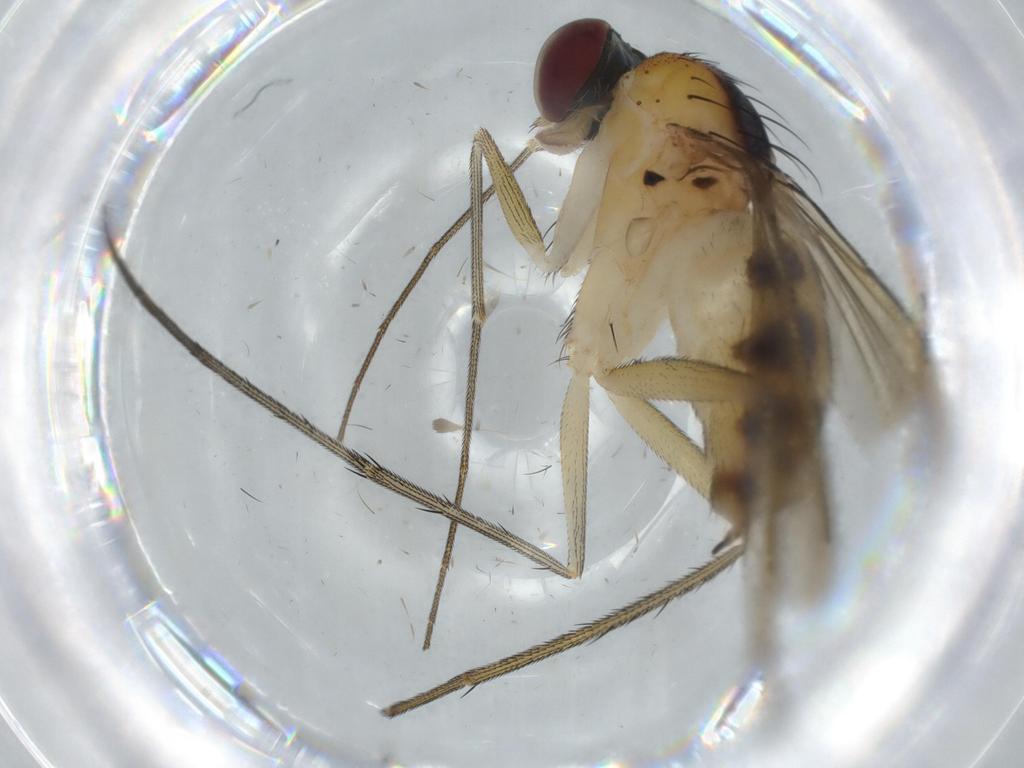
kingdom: Animalia
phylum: Arthropoda
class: Insecta
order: Diptera
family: Dolichopodidae
